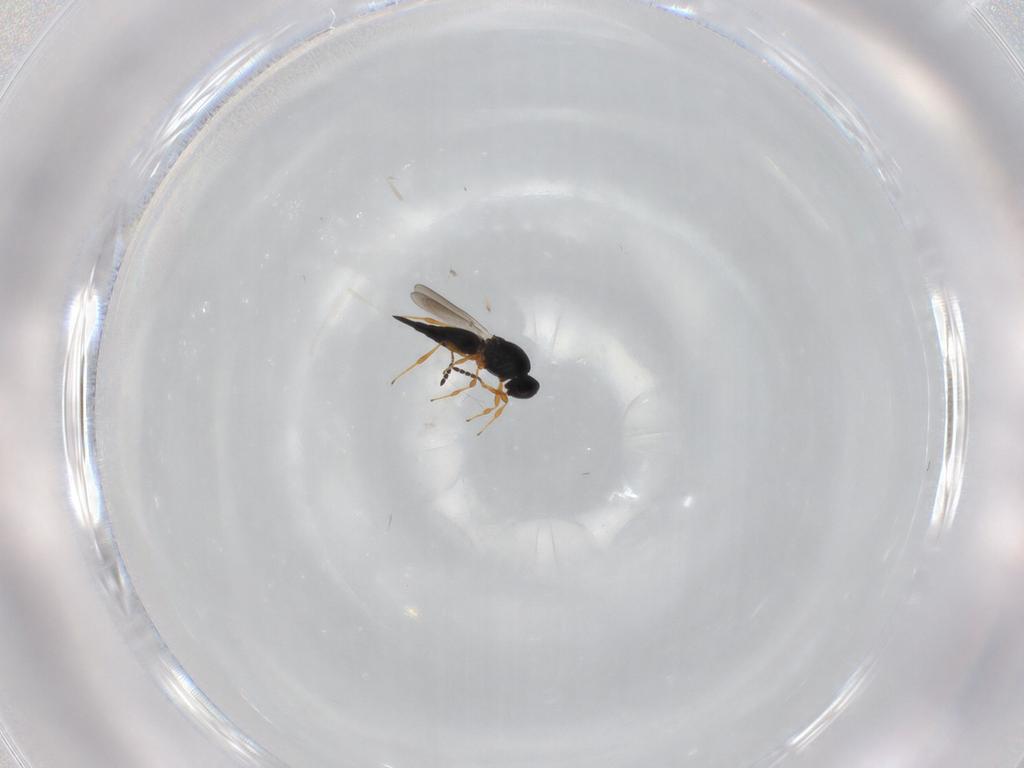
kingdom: Animalia
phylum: Arthropoda
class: Insecta
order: Hymenoptera
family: Platygastridae
